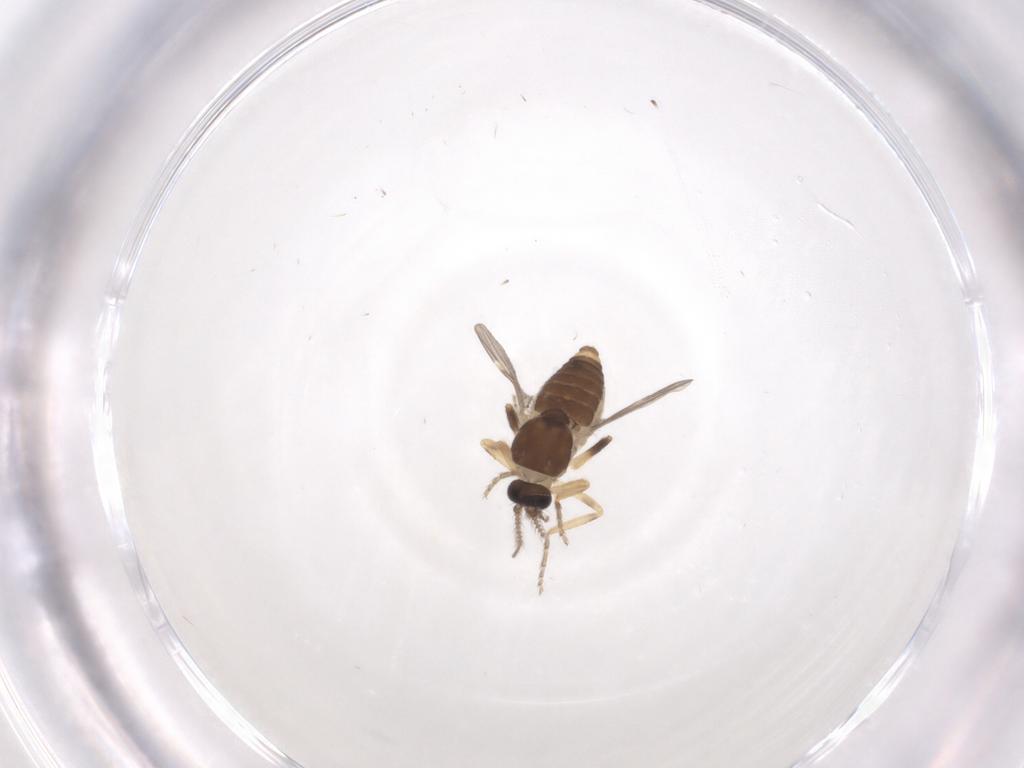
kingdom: Animalia
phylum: Arthropoda
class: Insecta
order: Diptera
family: Ceratopogonidae
